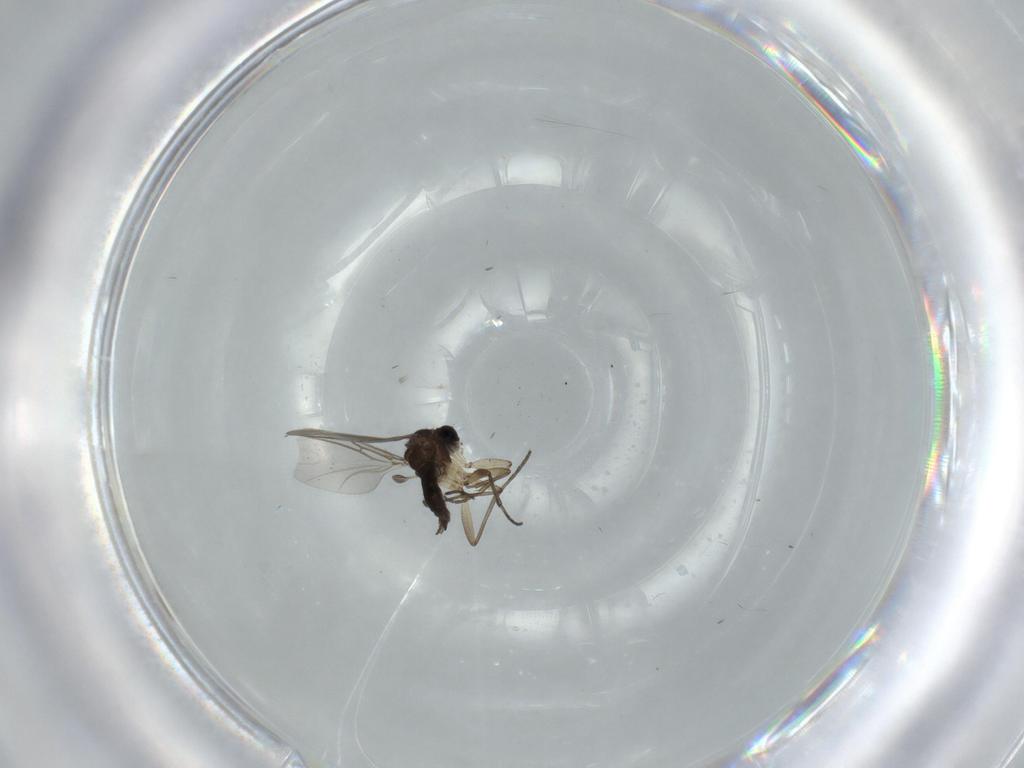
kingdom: Animalia
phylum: Arthropoda
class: Insecta
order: Diptera
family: Sciaridae
